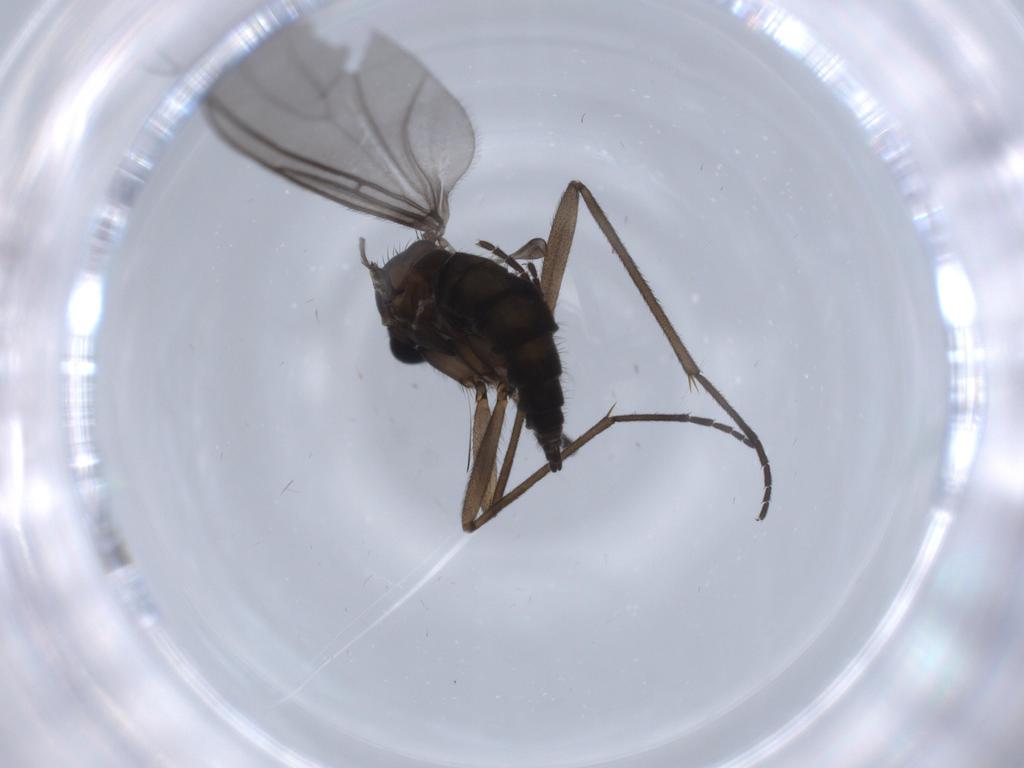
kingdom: Animalia
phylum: Arthropoda
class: Insecta
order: Diptera
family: Sciaridae
